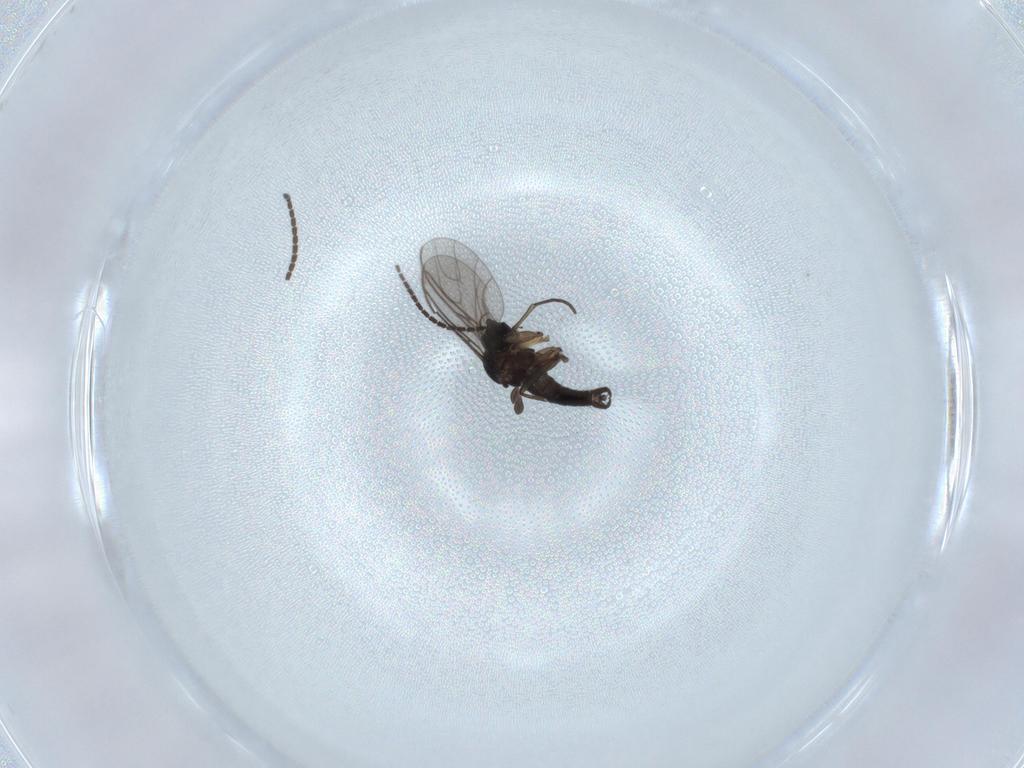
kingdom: Animalia
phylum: Arthropoda
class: Insecta
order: Diptera
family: Sciaridae
